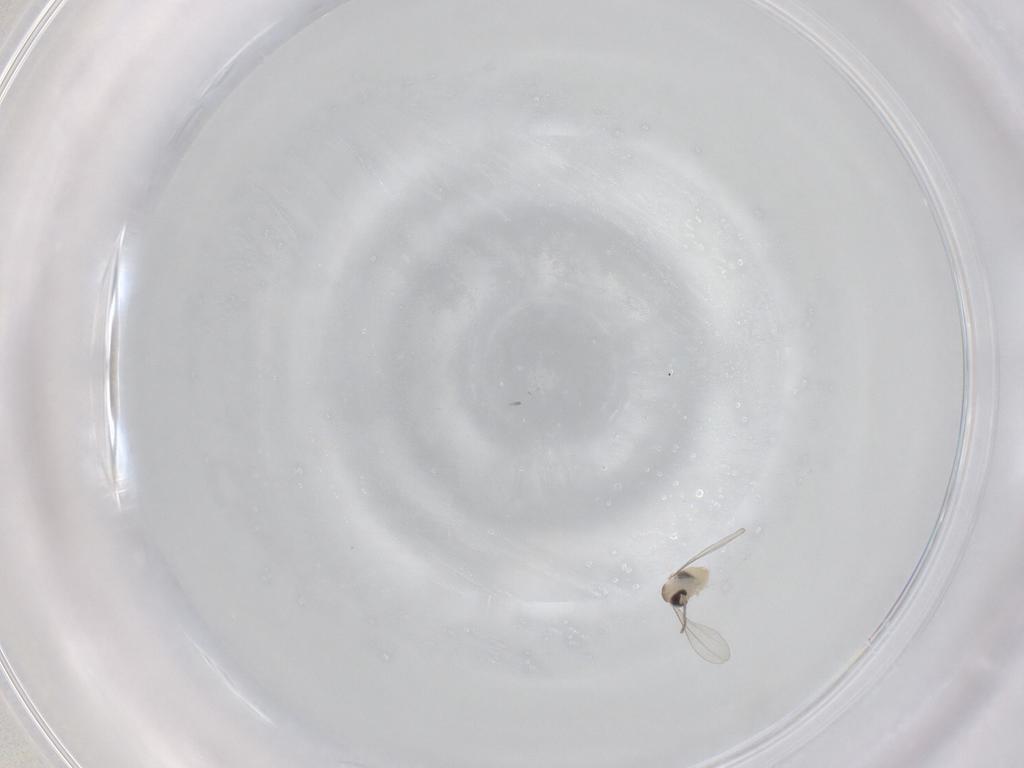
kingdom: Animalia
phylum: Arthropoda
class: Insecta
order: Diptera
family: Cecidomyiidae
